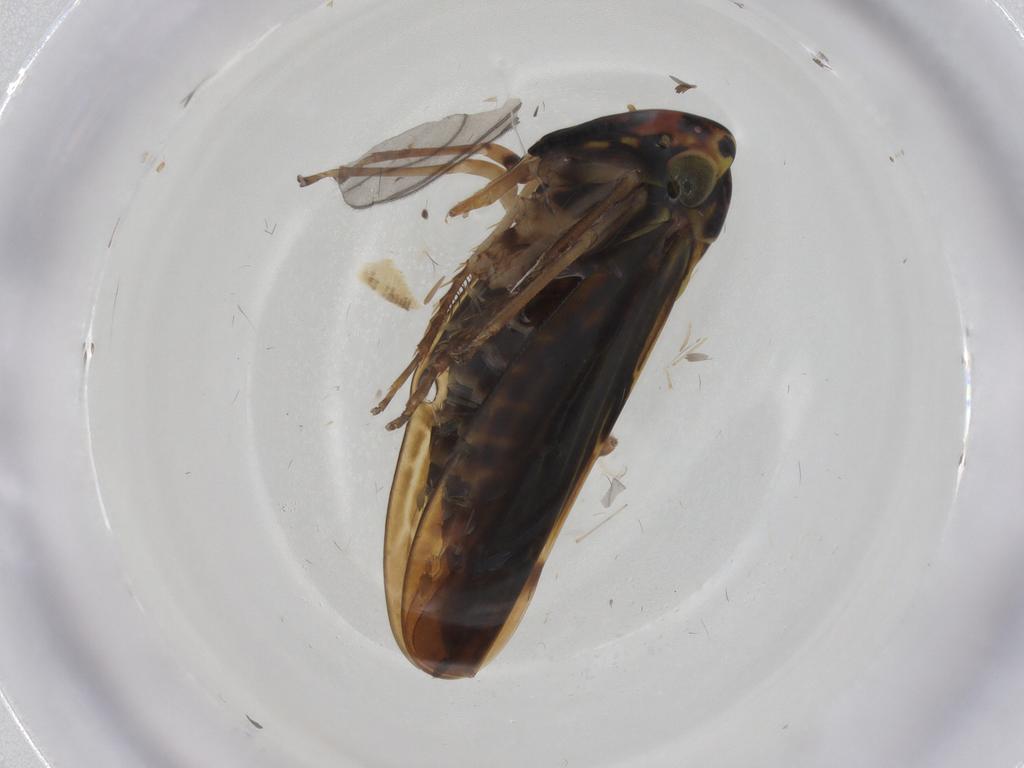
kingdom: Animalia
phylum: Arthropoda
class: Insecta
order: Hemiptera
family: Cicadellidae
